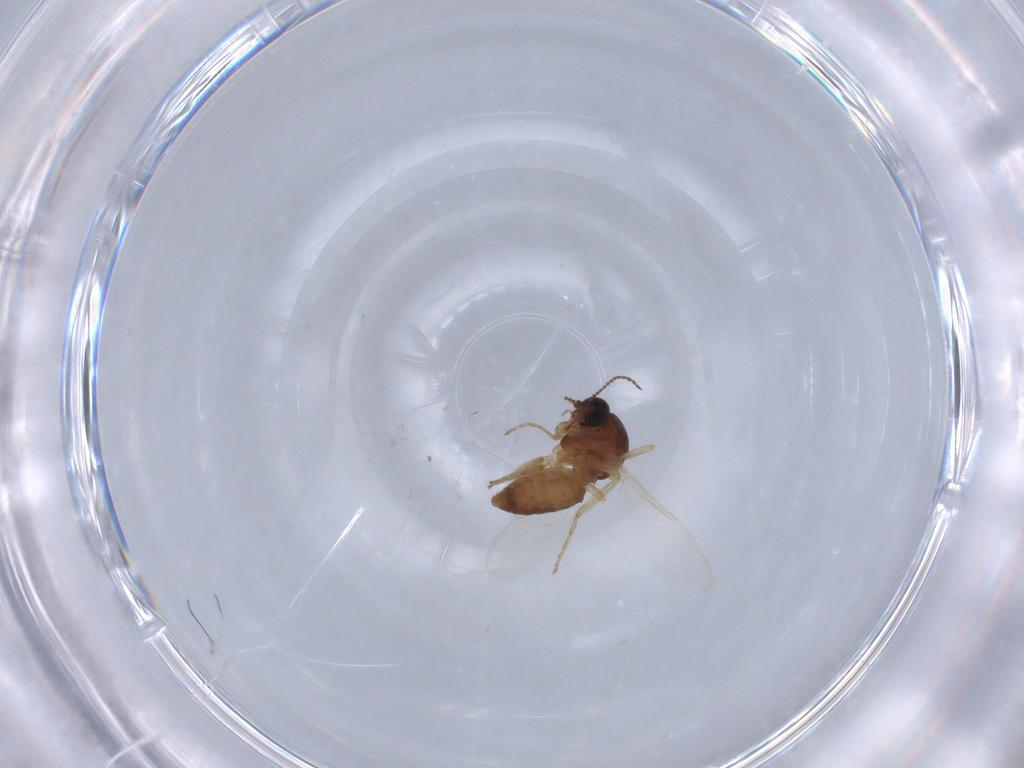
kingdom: Animalia
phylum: Arthropoda
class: Insecta
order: Diptera
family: Ceratopogonidae
